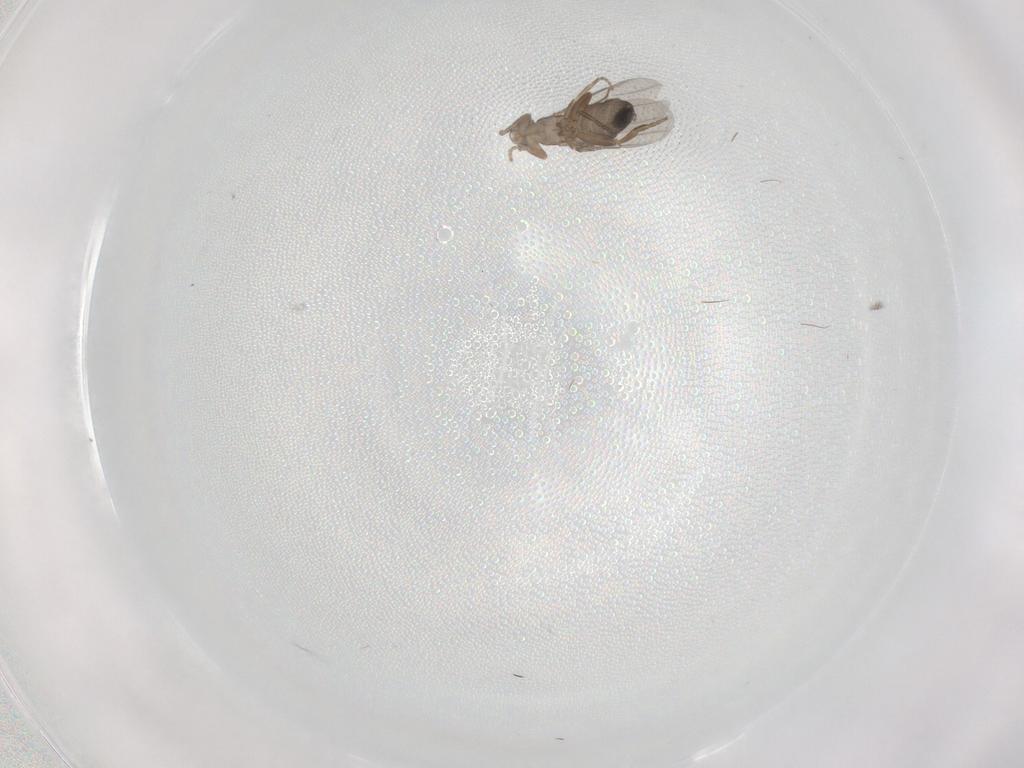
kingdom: Animalia
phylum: Arthropoda
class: Insecta
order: Diptera
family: Phoridae
